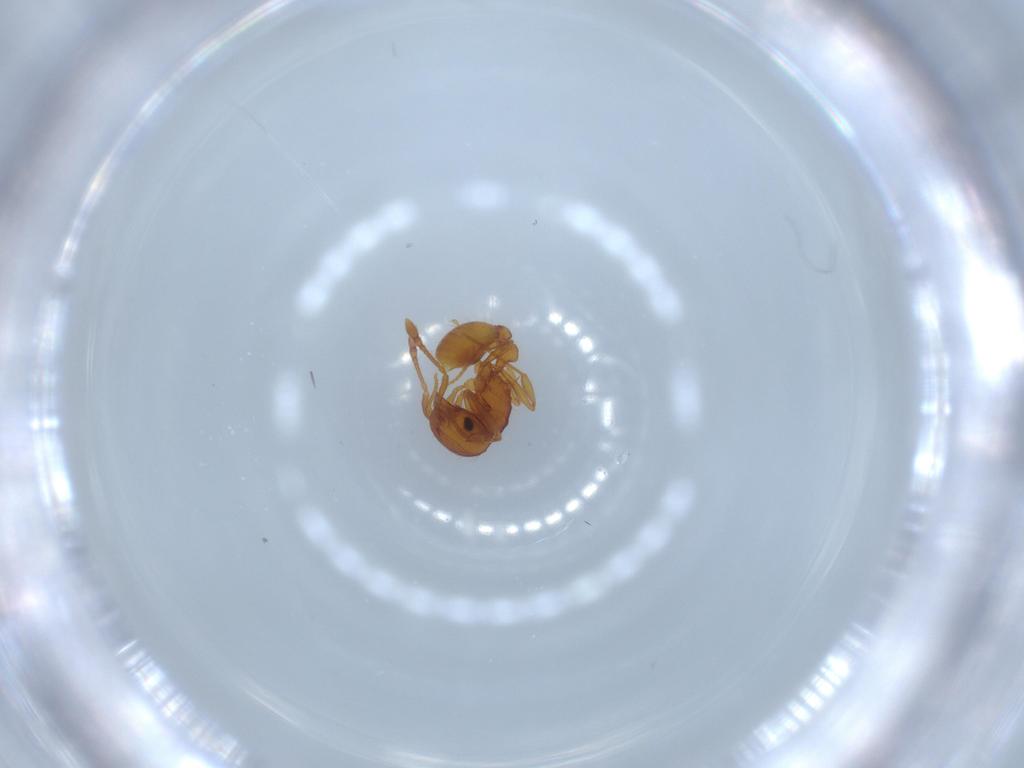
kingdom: Animalia
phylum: Arthropoda
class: Insecta
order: Hymenoptera
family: Formicidae
